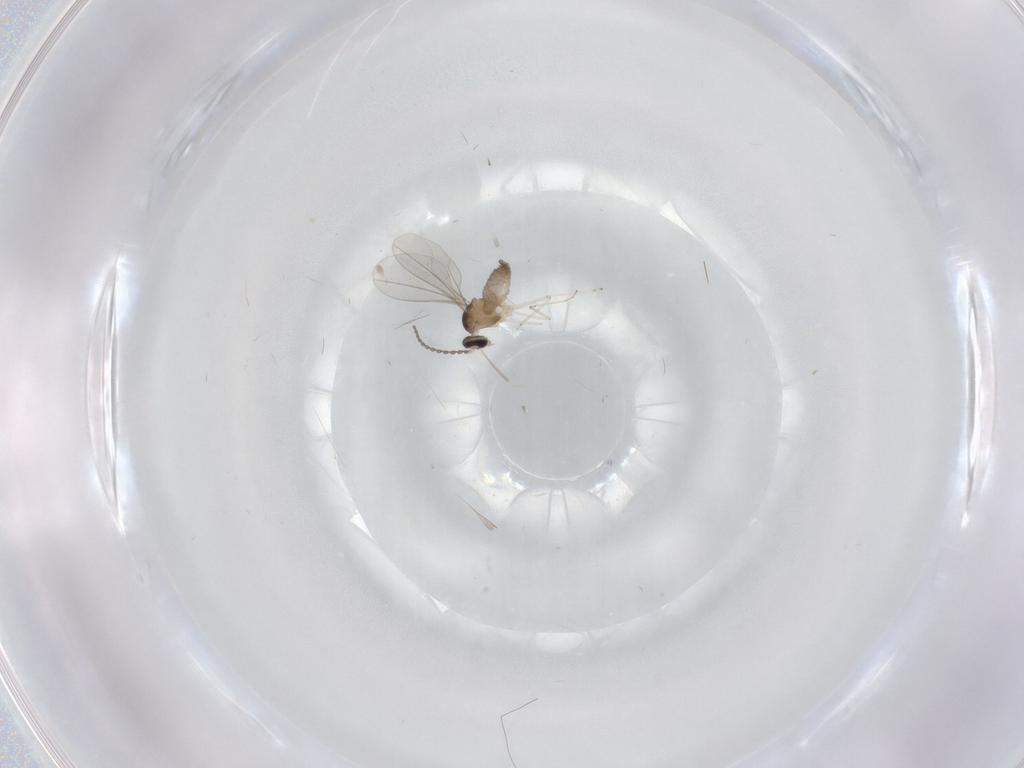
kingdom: Animalia
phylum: Arthropoda
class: Insecta
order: Diptera
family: Cecidomyiidae
